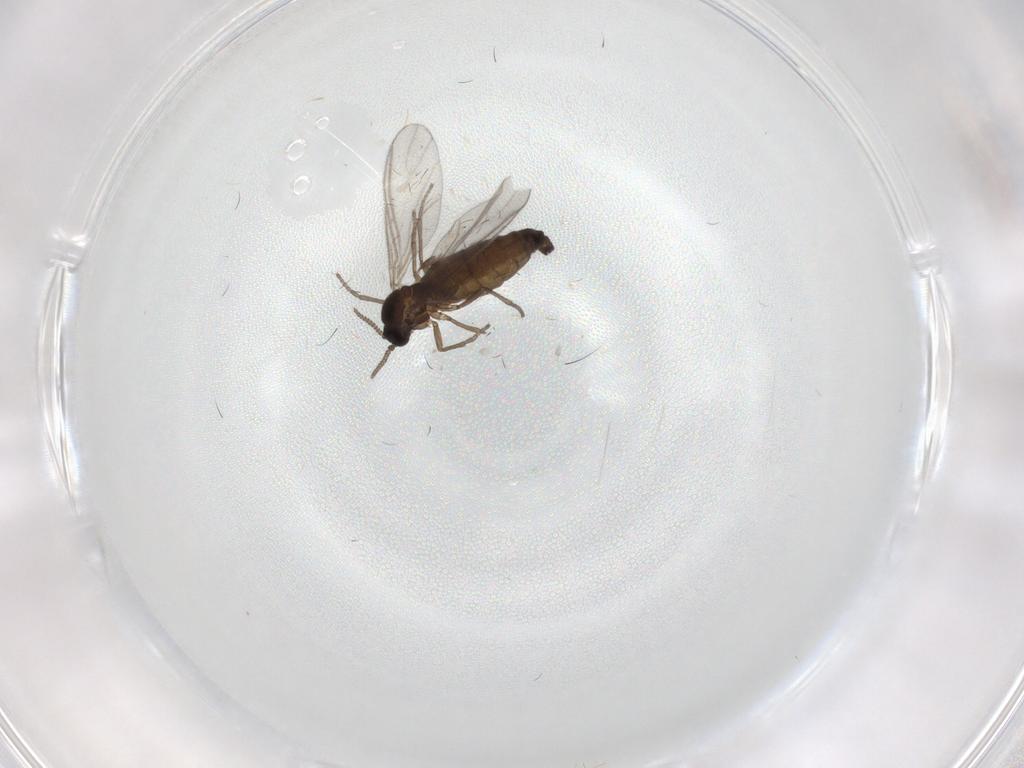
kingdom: Animalia
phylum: Arthropoda
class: Insecta
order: Diptera
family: Sciaridae
